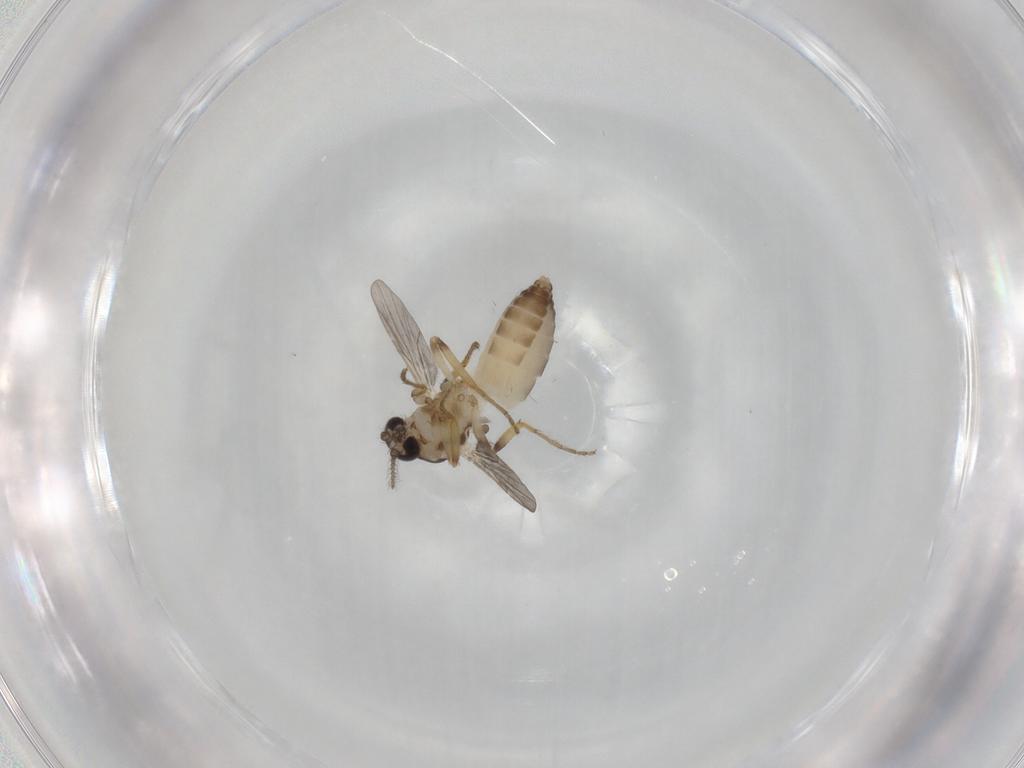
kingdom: Animalia
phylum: Arthropoda
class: Insecta
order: Diptera
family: Ceratopogonidae
